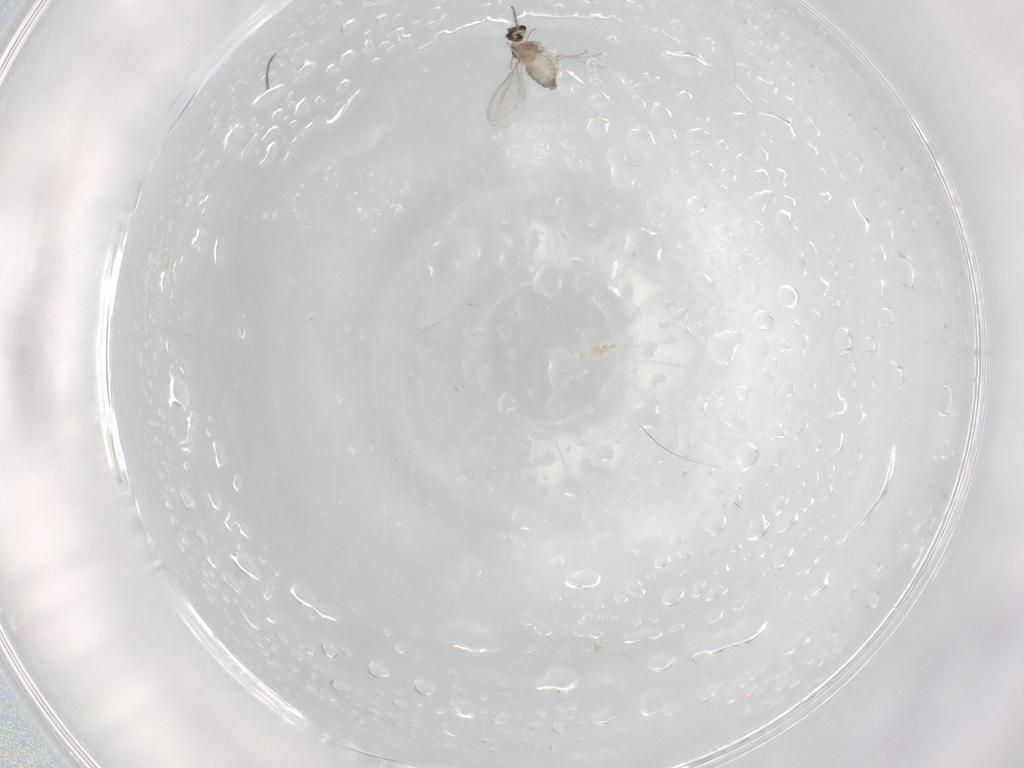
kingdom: Animalia
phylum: Arthropoda
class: Insecta
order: Diptera
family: Cecidomyiidae
